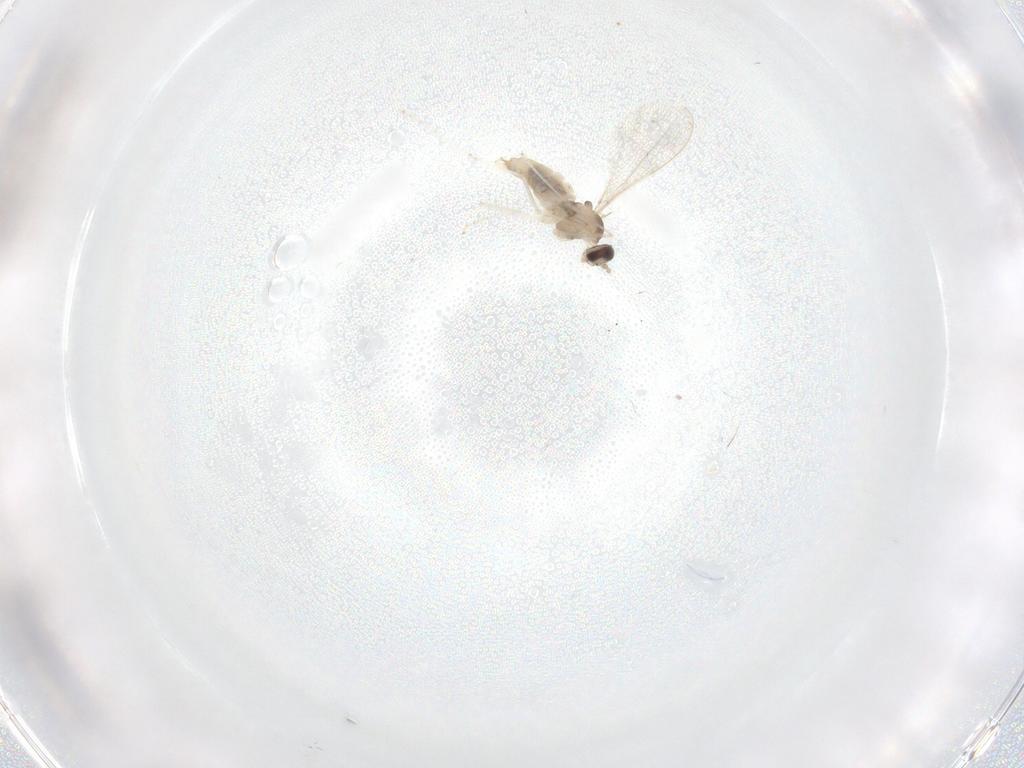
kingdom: Animalia
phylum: Arthropoda
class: Insecta
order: Diptera
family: Cecidomyiidae
